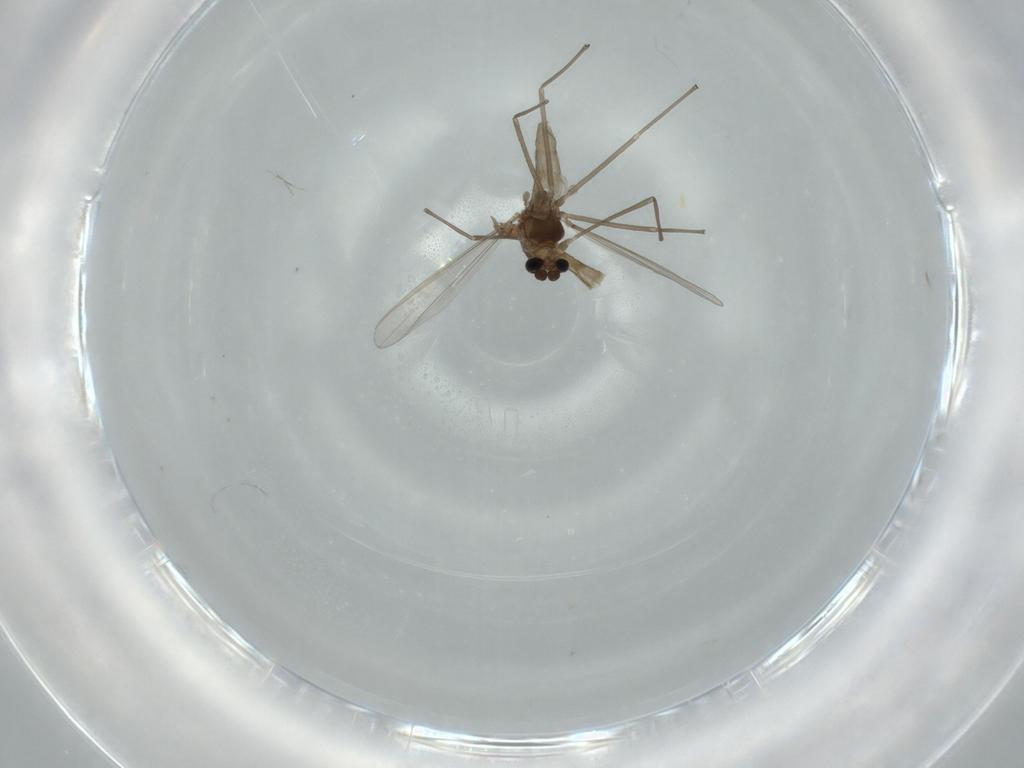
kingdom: Animalia
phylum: Arthropoda
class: Insecta
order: Diptera
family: Chironomidae
